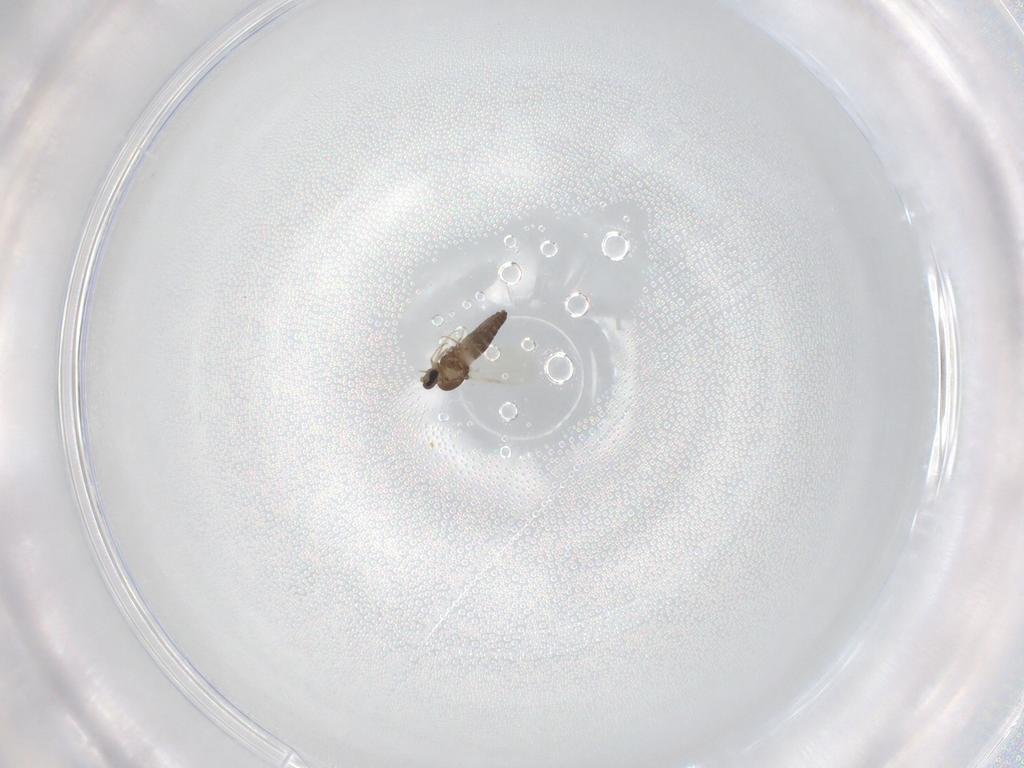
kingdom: Animalia
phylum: Arthropoda
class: Insecta
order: Diptera
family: Ceratopogonidae
